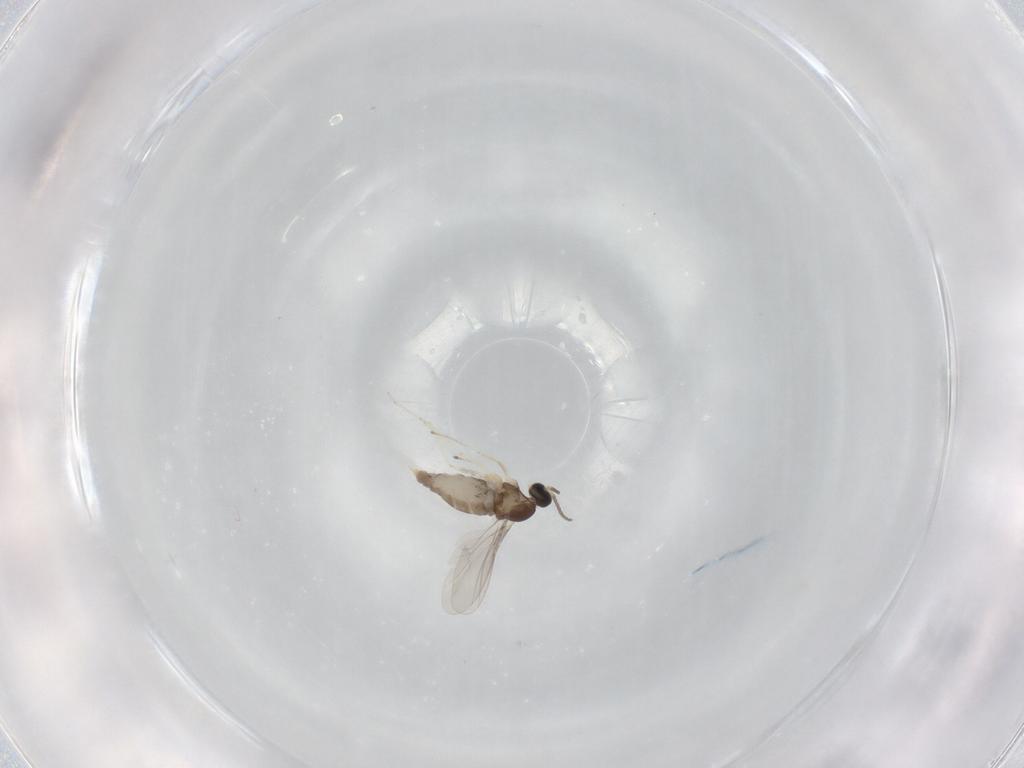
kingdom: Animalia
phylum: Arthropoda
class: Insecta
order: Diptera
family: Cecidomyiidae
